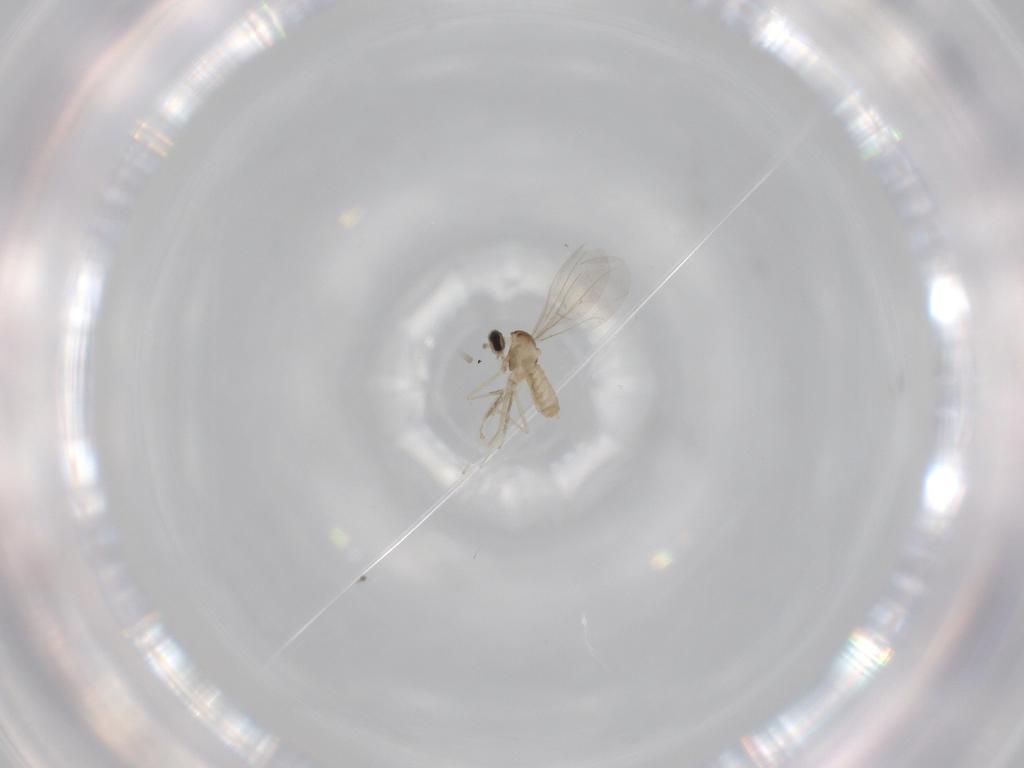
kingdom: Animalia
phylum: Arthropoda
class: Insecta
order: Diptera
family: Cecidomyiidae
